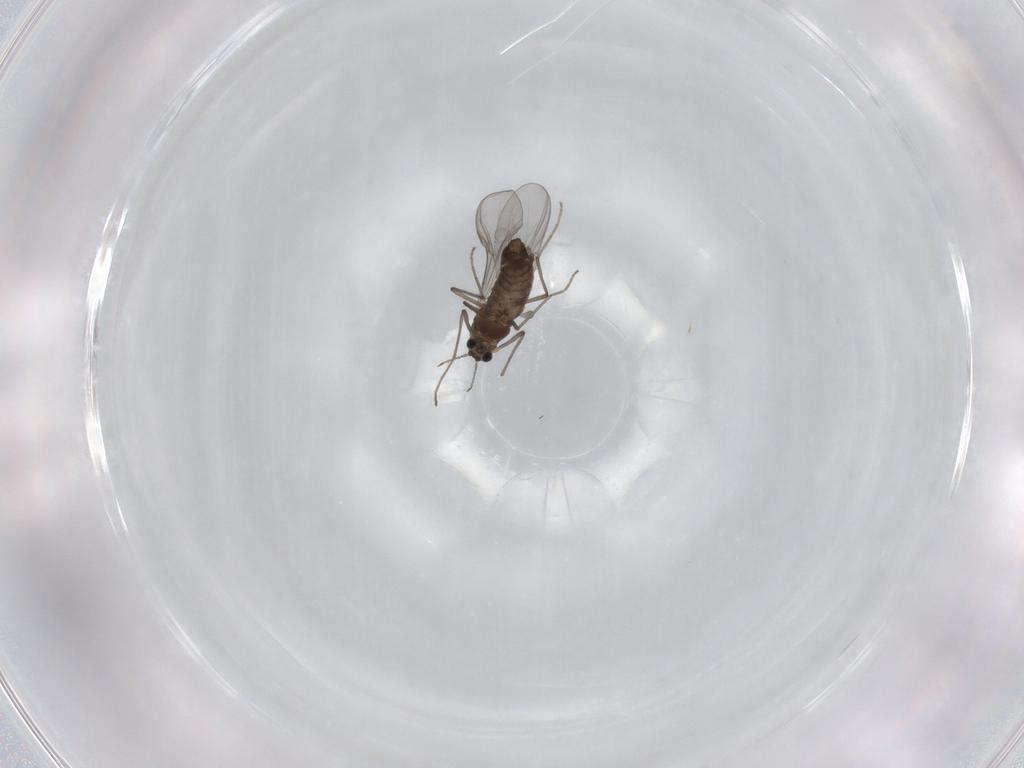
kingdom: Animalia
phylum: Arthropoda
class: Insecta
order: Diptera
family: Chironomidae
